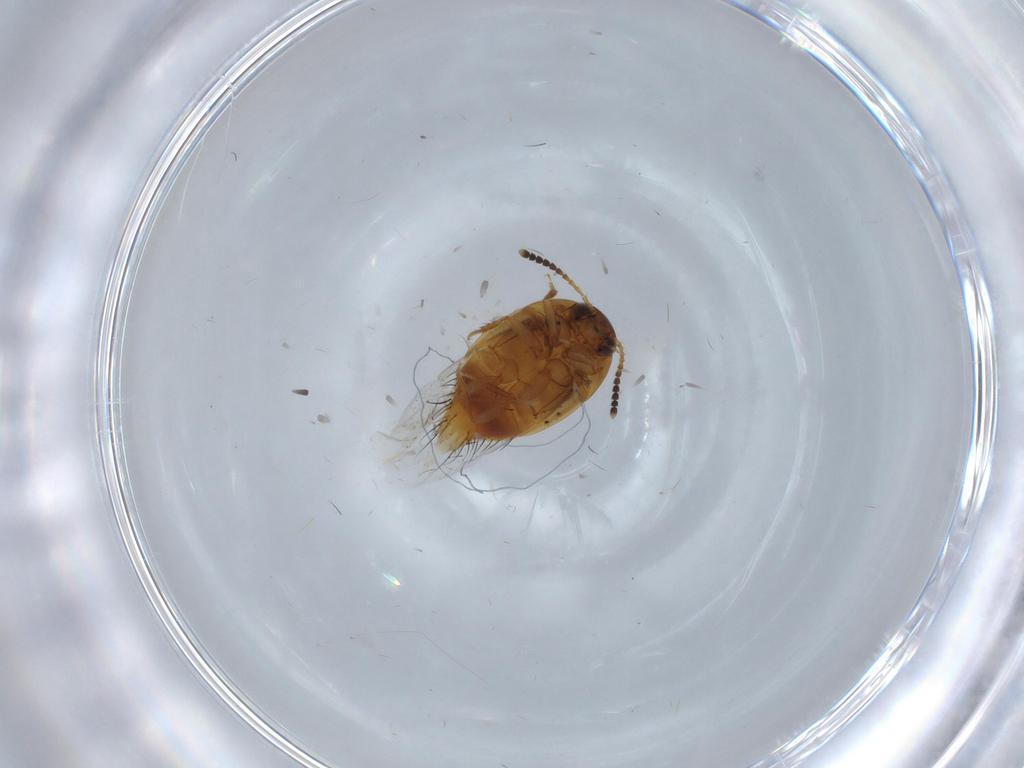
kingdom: Animalia
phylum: Arthropoda
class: Insecta
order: Coleoptera
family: Staphylinidae
